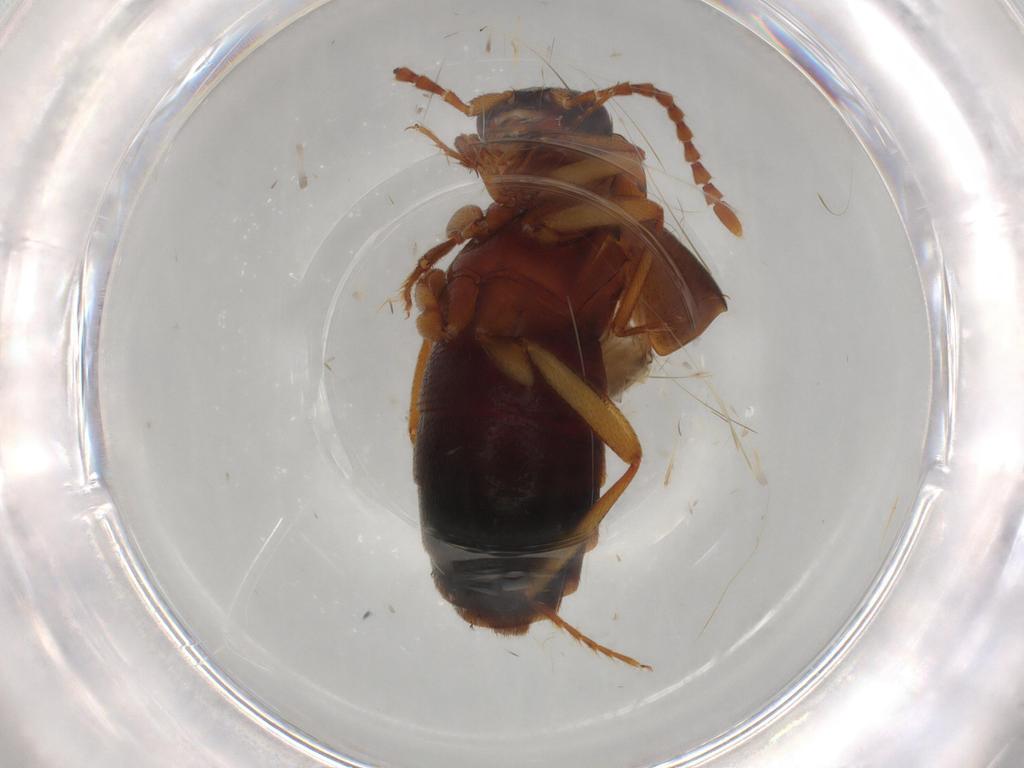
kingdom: Animalia
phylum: Arthropoda
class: Insecta
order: Coleoptera
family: Staphylinidae
